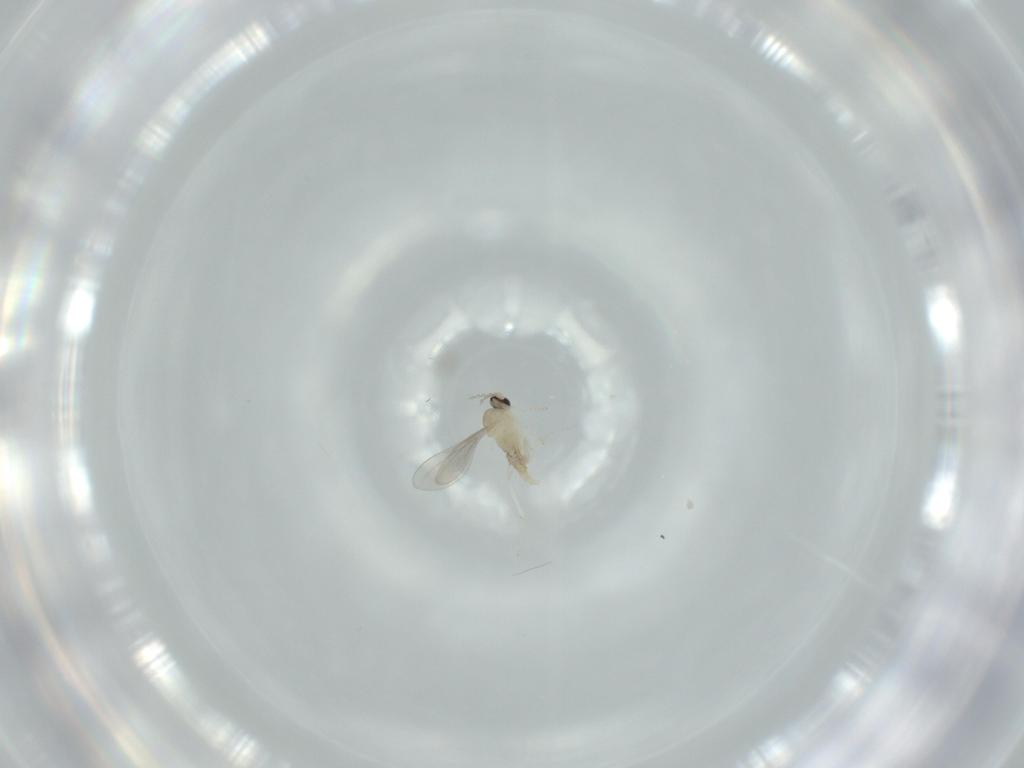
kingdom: Animalia
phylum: Arthropoda
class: Insecta
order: Diptera
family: Cecidomyiidae
